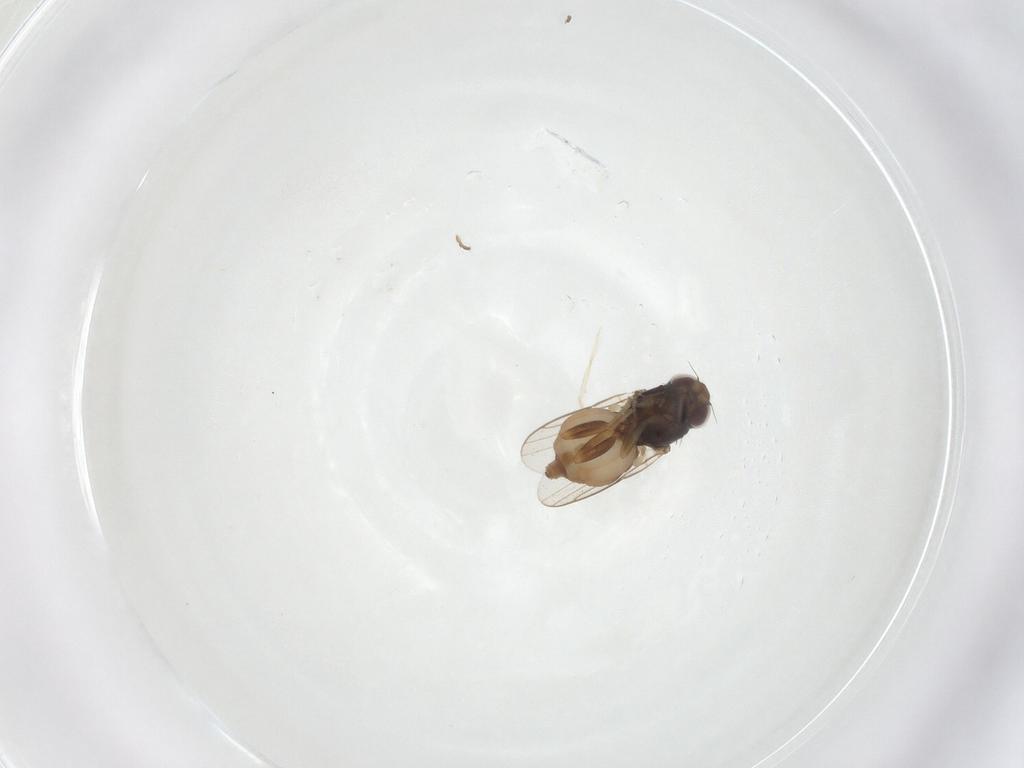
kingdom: Animalia
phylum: Arthropoda
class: Insecta
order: Diptera
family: Chloropidae
